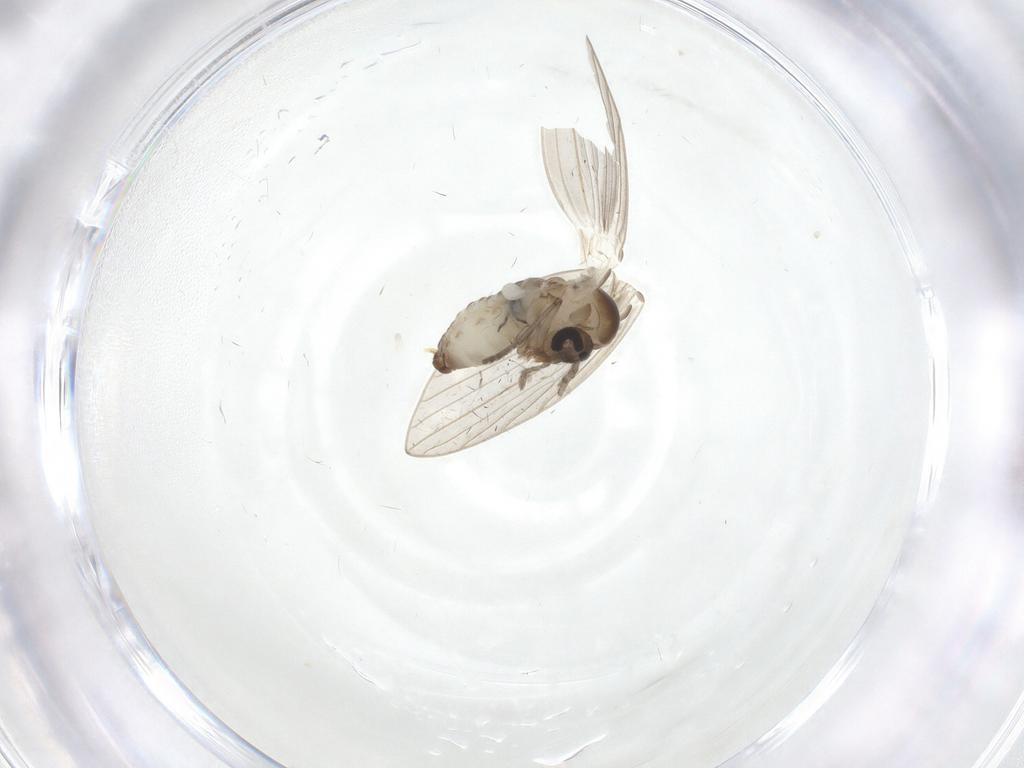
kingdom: Animalia
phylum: Arthropoda
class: Insecta
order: Diptera
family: Psychodidae
